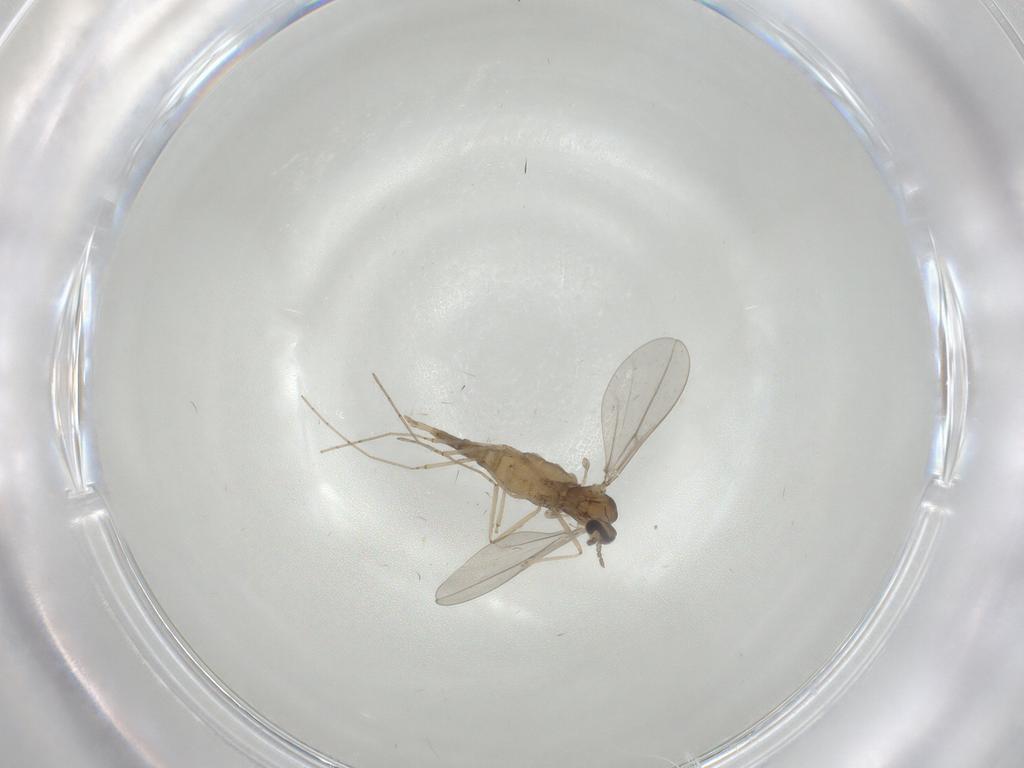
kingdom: Animalia
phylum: Arthropoda
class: Insecta
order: Diptera
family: Cecidomyiidae
